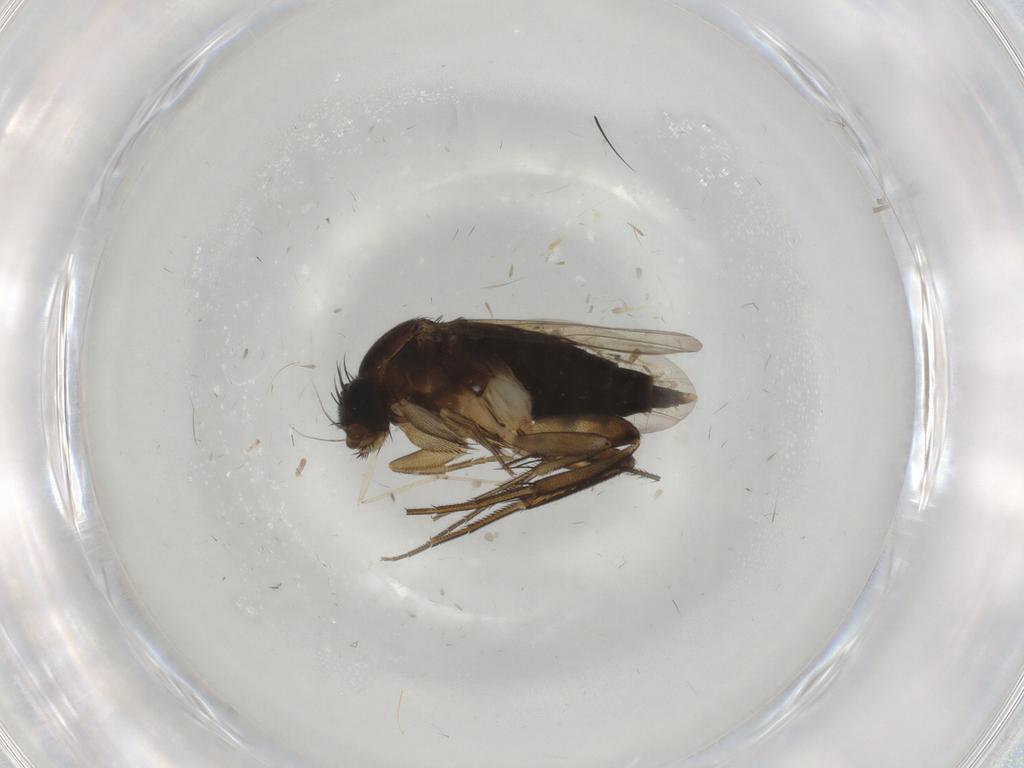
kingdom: Animalia
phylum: Arthropoda
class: Insecta
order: Diptera
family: Phoridae
